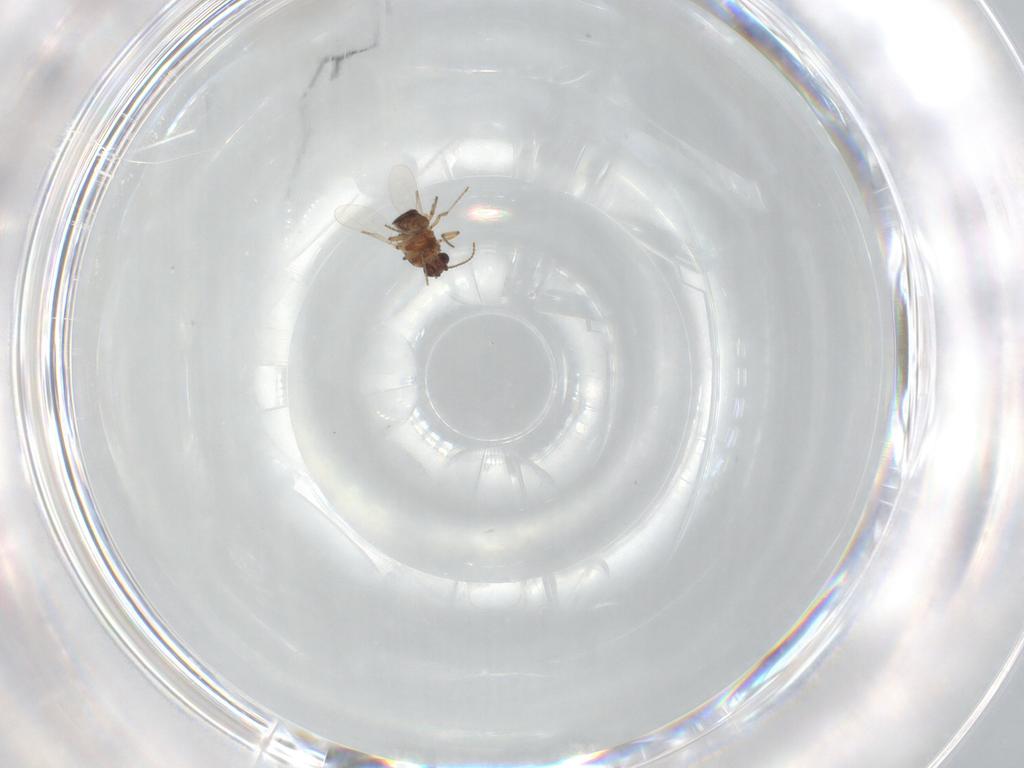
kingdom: Animalia
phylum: Arthropoda
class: Insecta
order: Diptera
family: Ceratopogonidae
